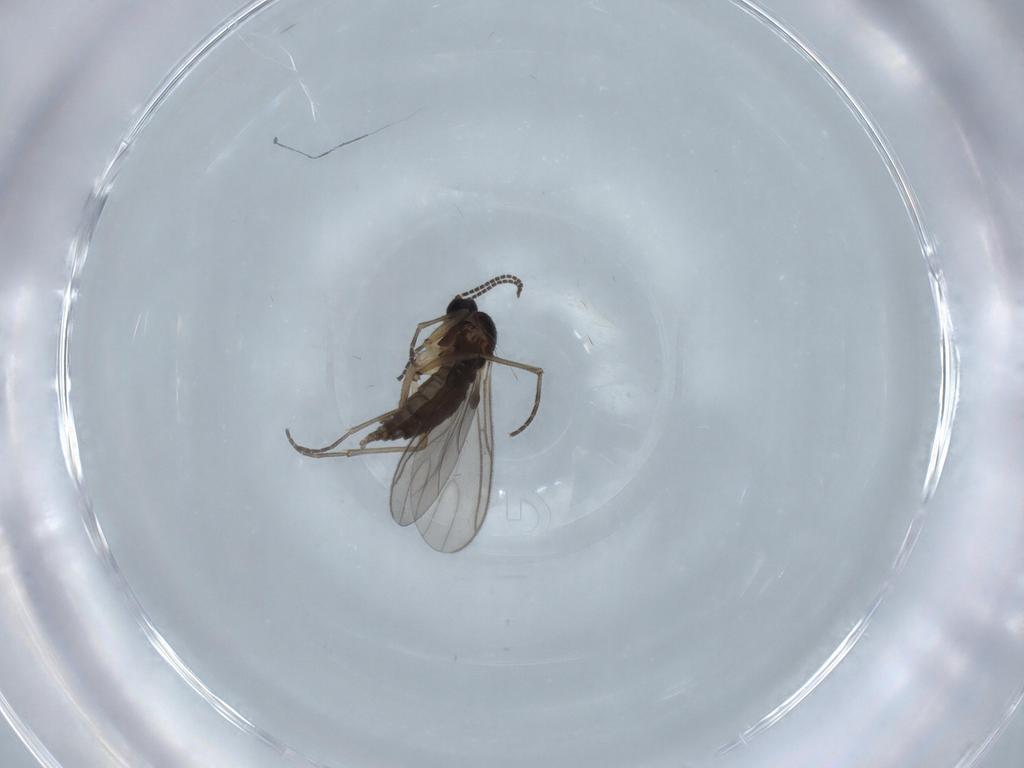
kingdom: Animalia
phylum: Arthropoda
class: Insecta
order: Diptera
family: Sciaridae
